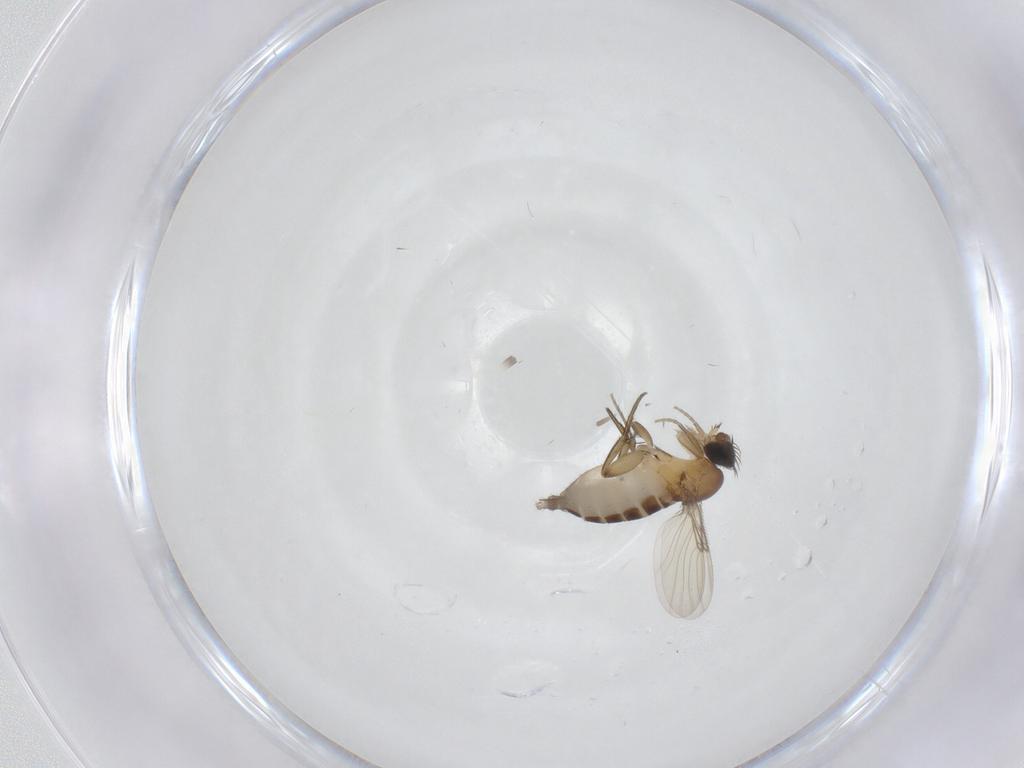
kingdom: Animalia
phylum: Arthropoda
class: Insecta
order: Diptera
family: Phoridae
